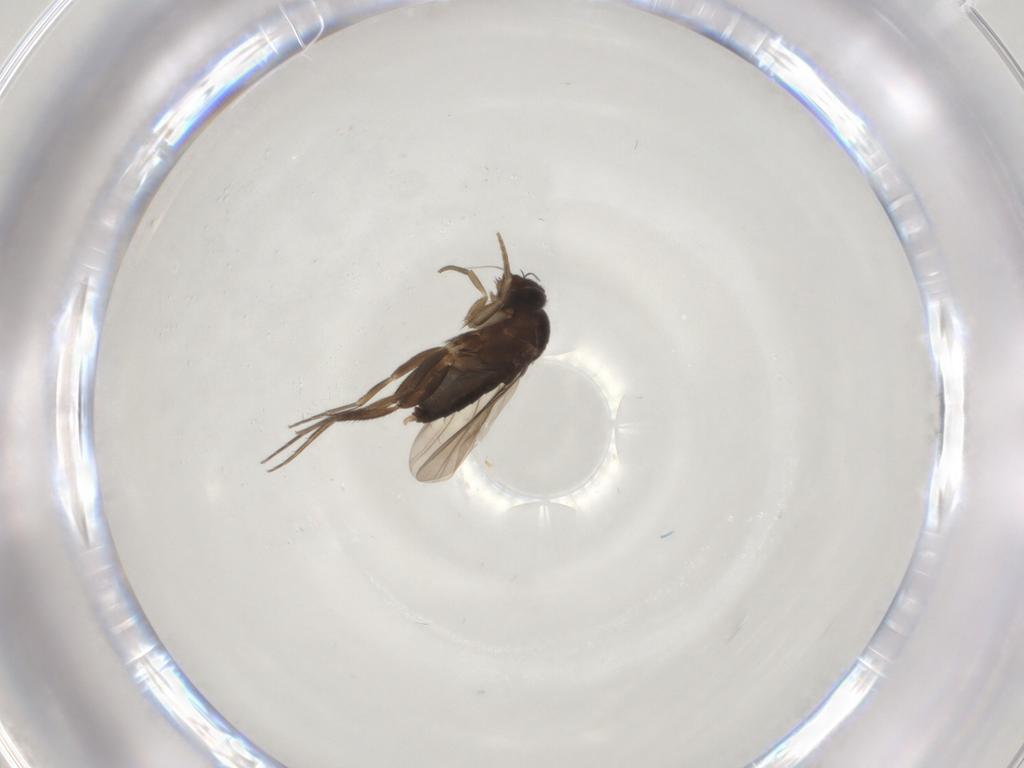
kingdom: Animalia
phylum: Arthropoda
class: Insecta
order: Diptera
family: Phoridae
